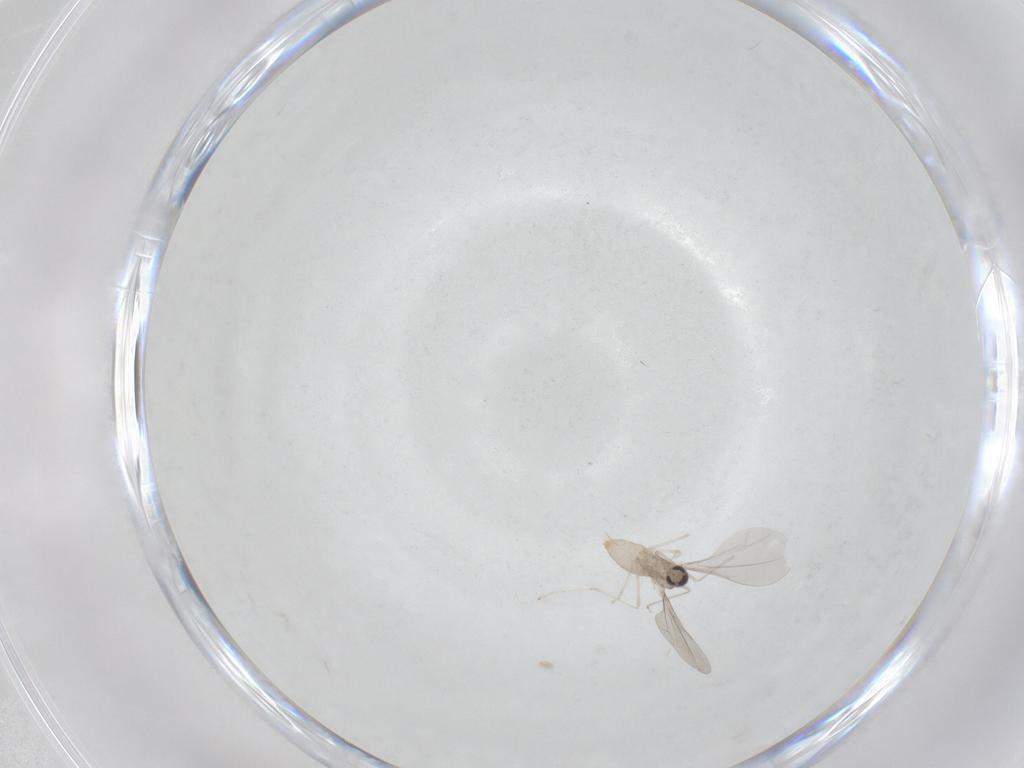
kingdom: Animalia
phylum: Arthropoda
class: Insecta
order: Diptera
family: Cecidomyiidae
